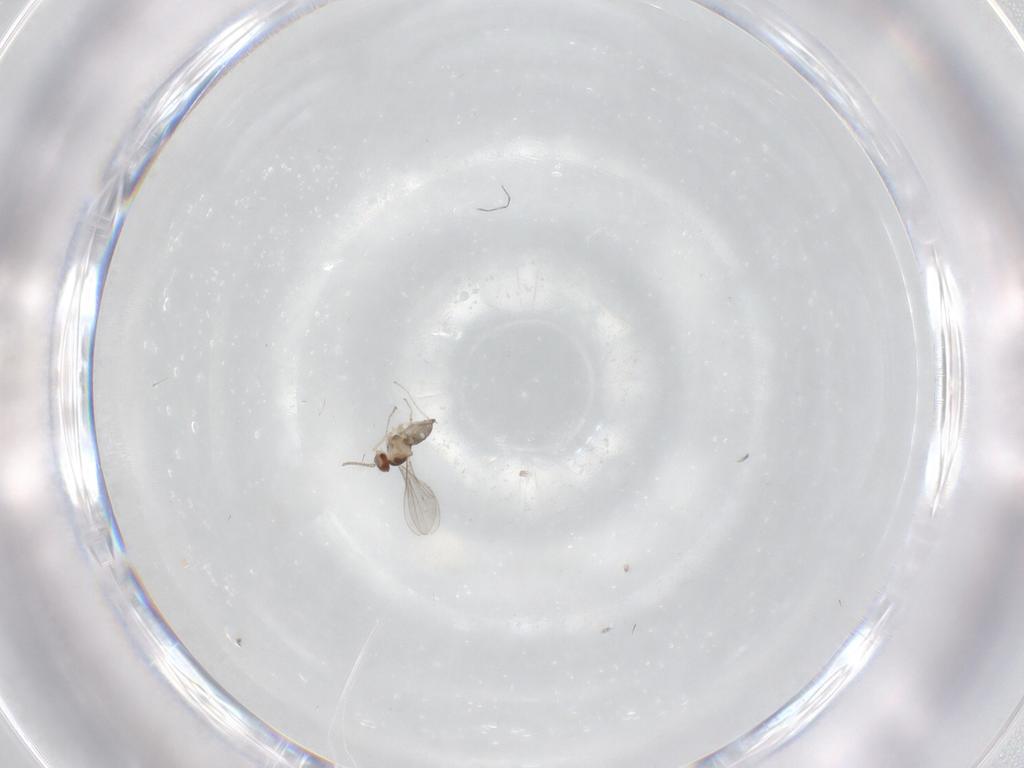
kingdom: Animalia
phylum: Arthropoda
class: Insecta
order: Diptera
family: Cecidomyiidae
